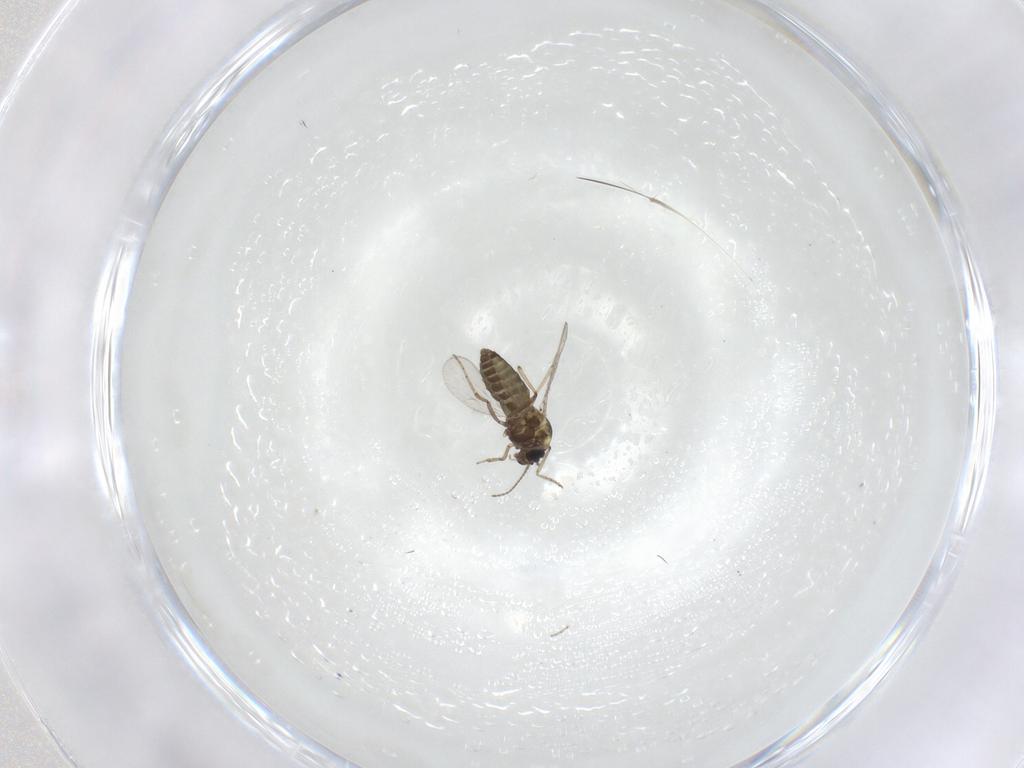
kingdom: Animalia
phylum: Arthropoda
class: Insecta
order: Diptera
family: Ceratopogonidae
